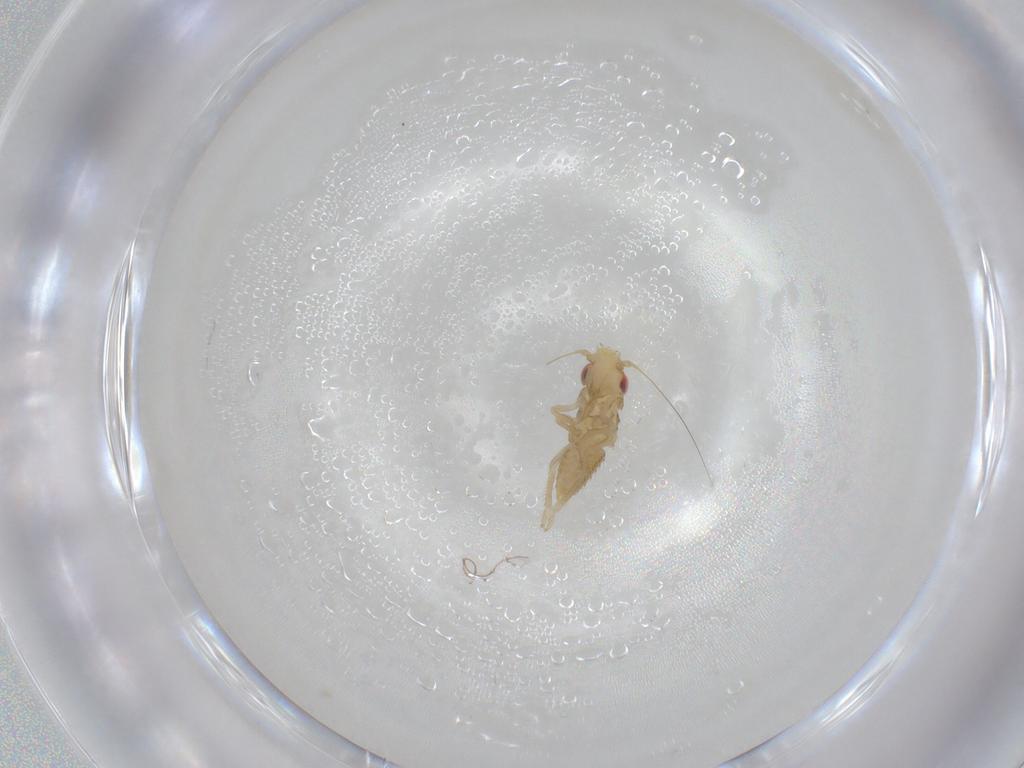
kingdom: Animalia
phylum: Arthropoda
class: Insecta
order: Hemiptera
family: Cicadellidae
